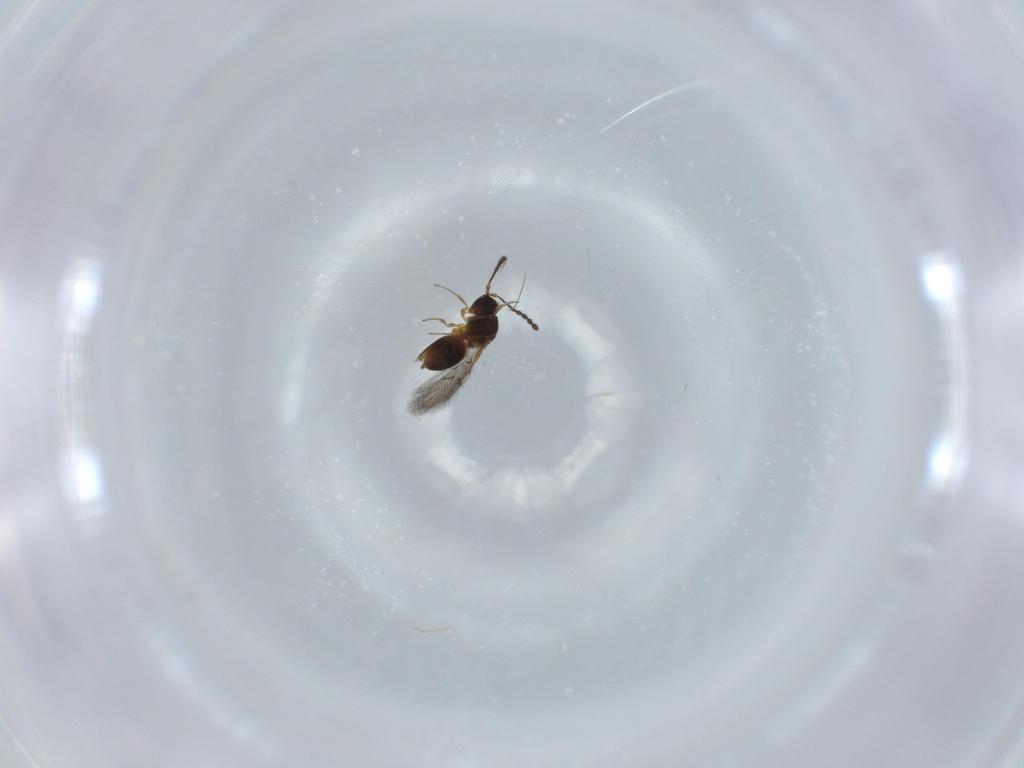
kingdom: Animalia
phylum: Arthropoda
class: Insecta
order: Hymenoptera
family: Figitidae
